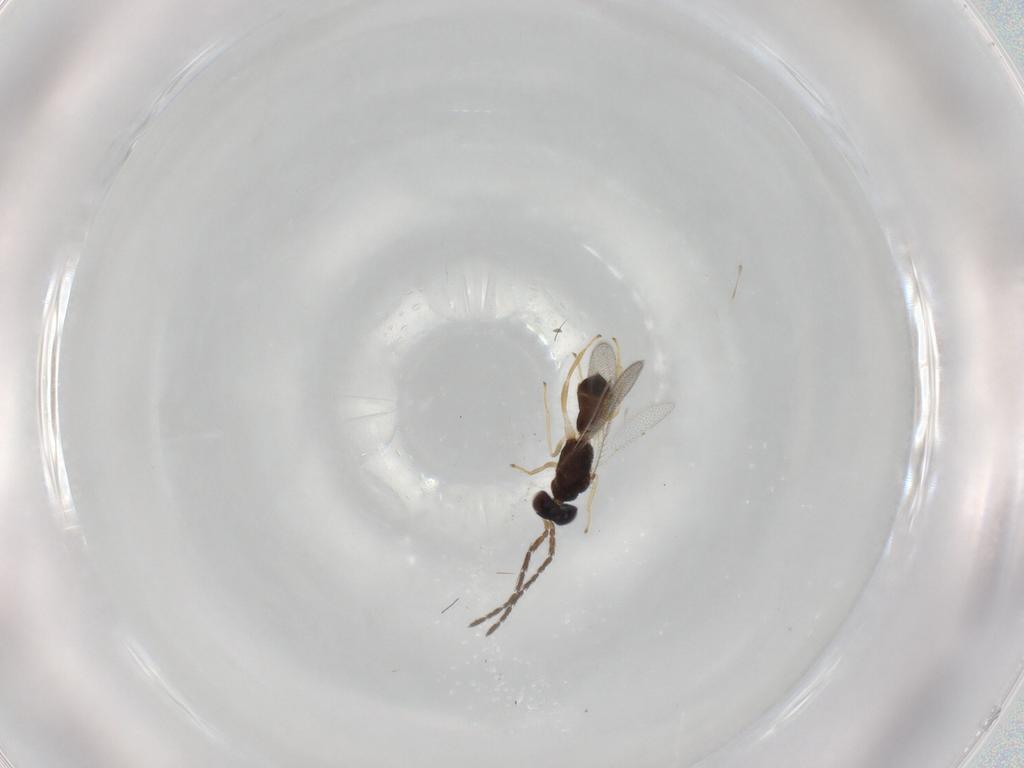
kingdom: Animalia
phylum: Arthropoda
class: Insecta
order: Hymenoptera
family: Eulophidae
